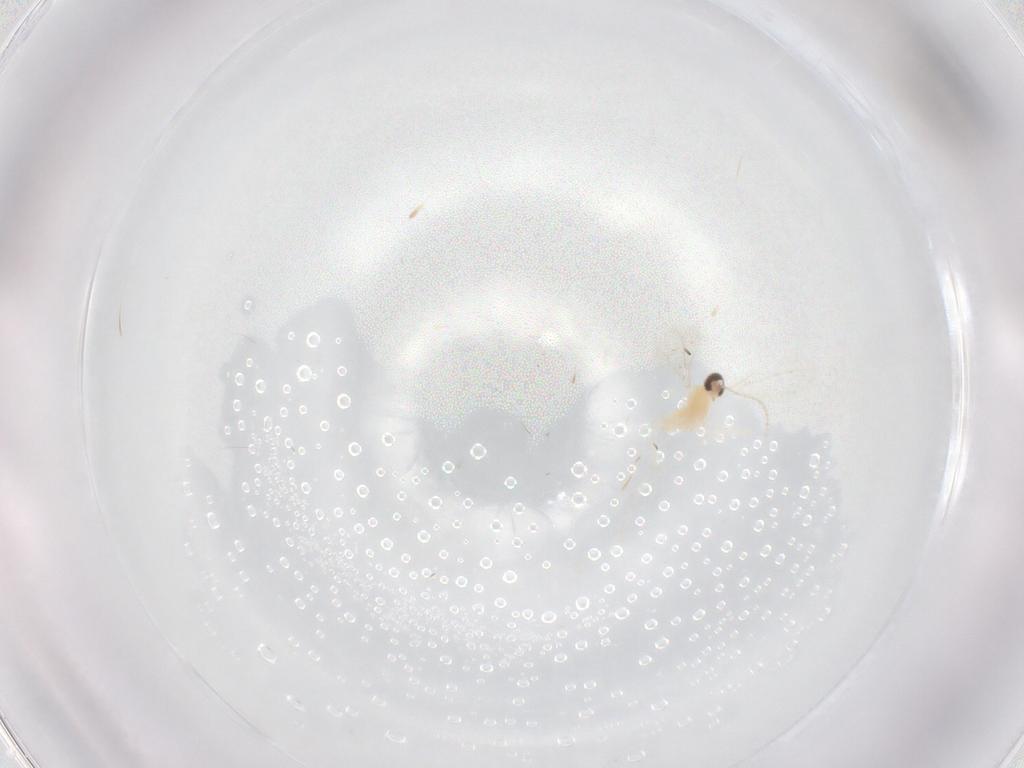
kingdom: Animalia
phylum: Arthropoda
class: Insecta
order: Diptera
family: Cecidomyiidae
